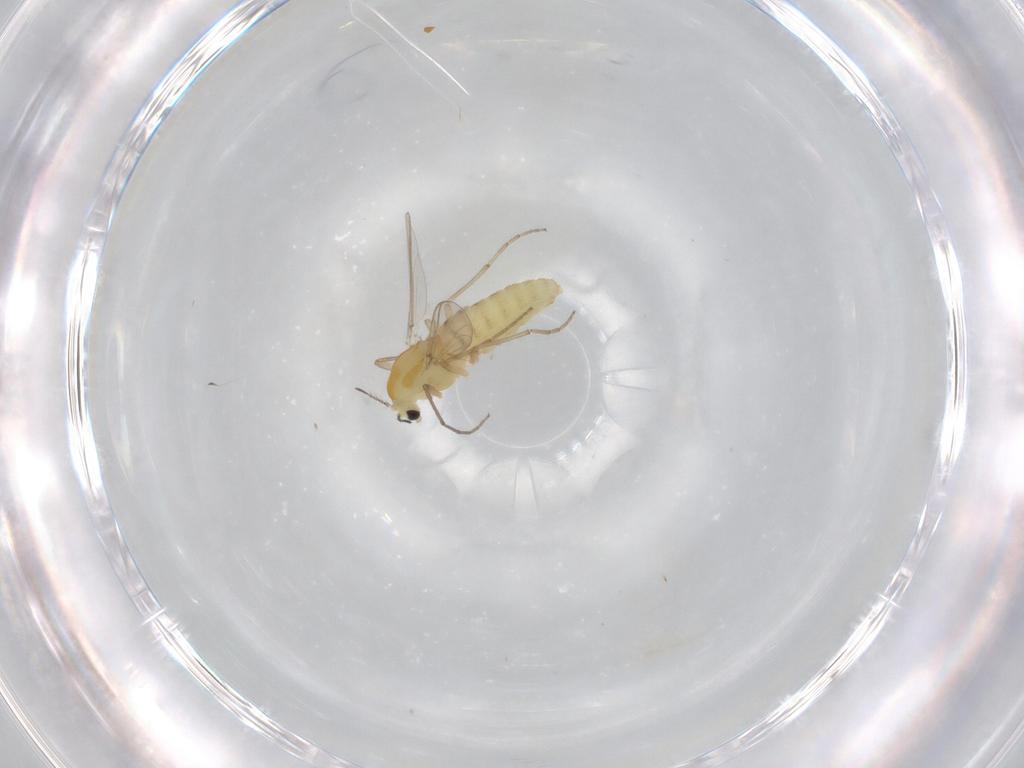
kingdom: Animalia
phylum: Arthropoda
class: Insecta
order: Diptera
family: Chironomidae
